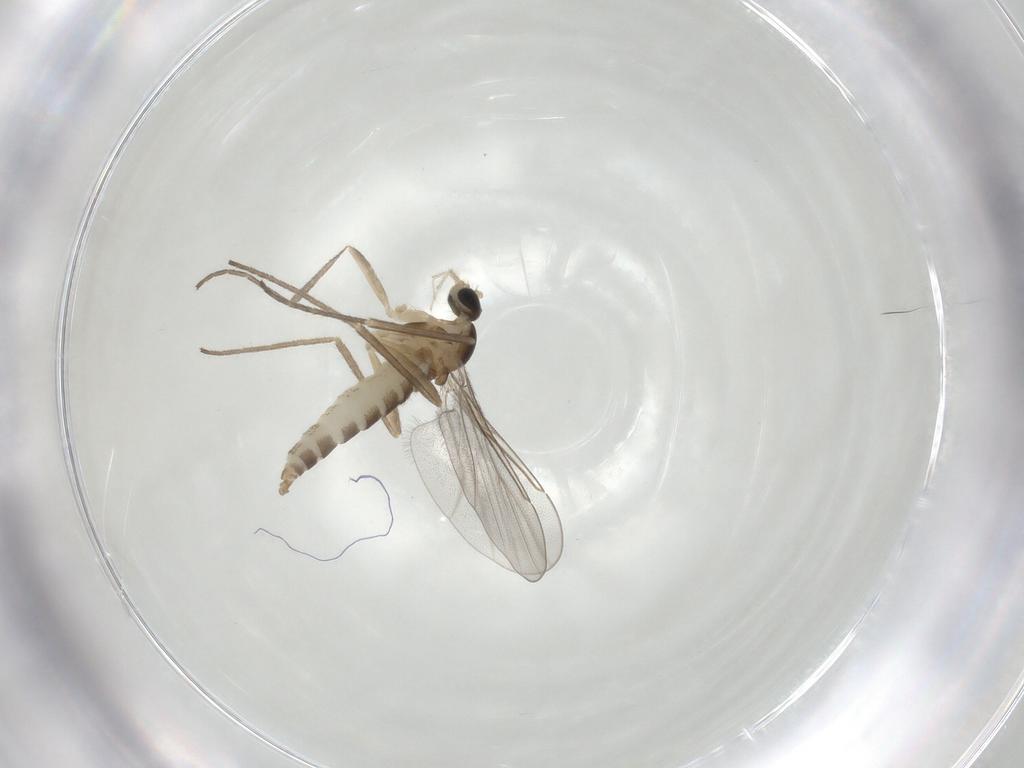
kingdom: Animalia
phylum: Arthropoda
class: Insecta
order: Diptera
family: Cecidomyiidae
